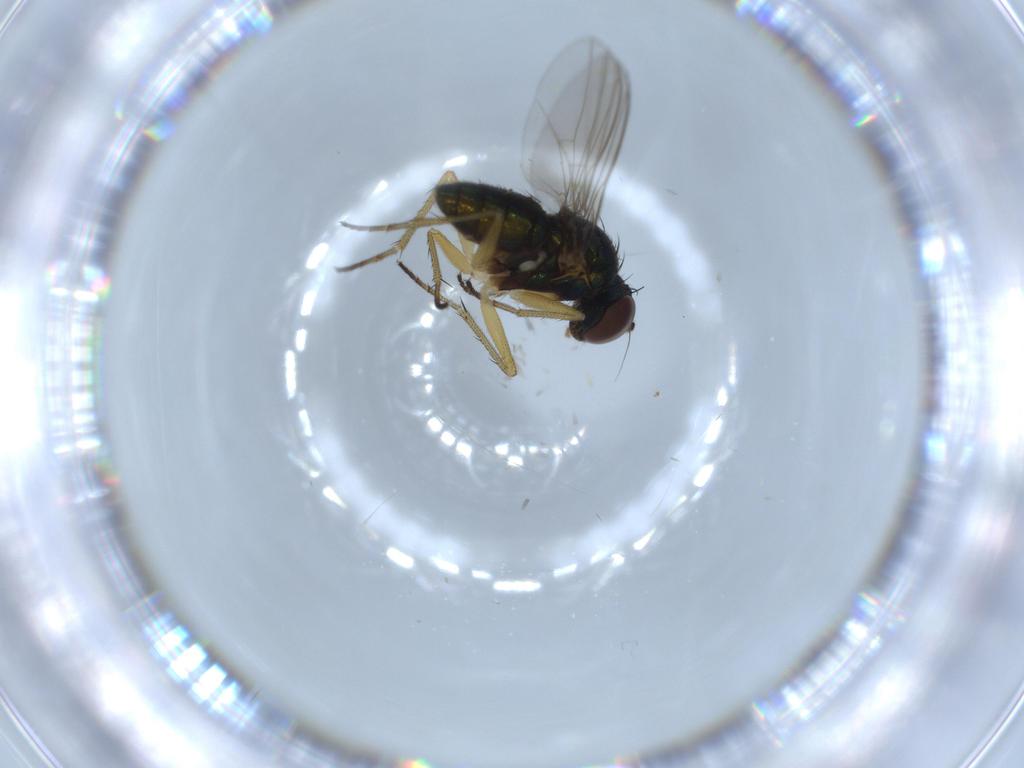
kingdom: Animalia
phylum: Arthropoda
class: Insecta
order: Diptera
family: Dolichopodidae
